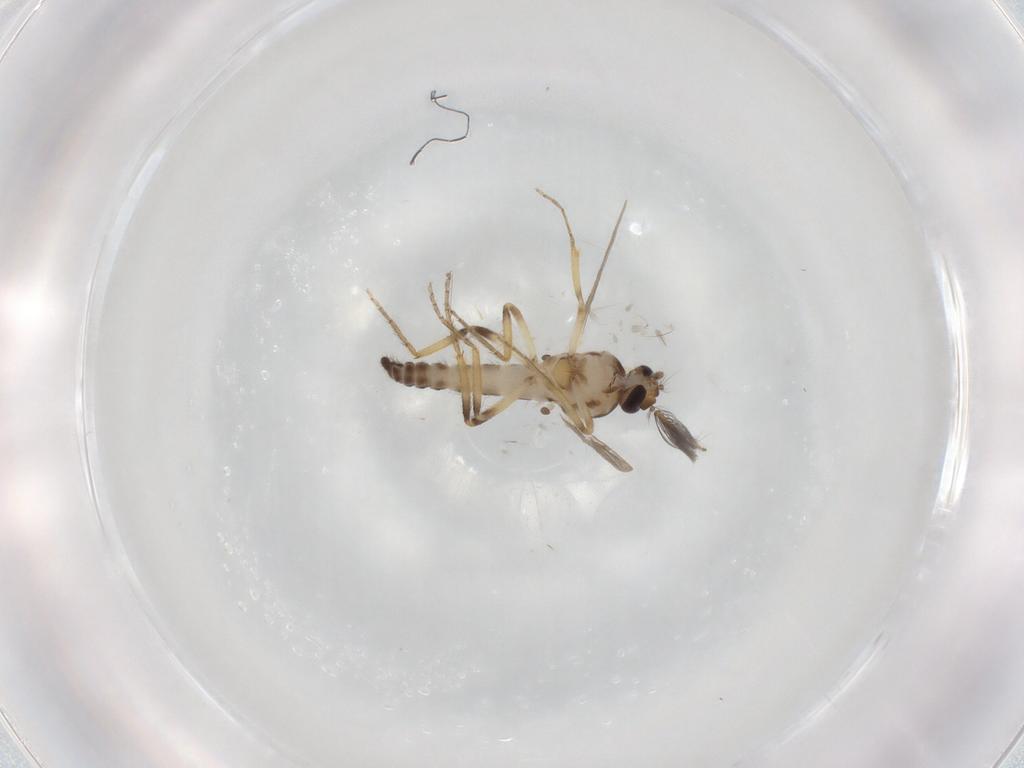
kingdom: Animalia
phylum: Arthropoda
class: Insecta
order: Diptera
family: Ceratopogonidae
